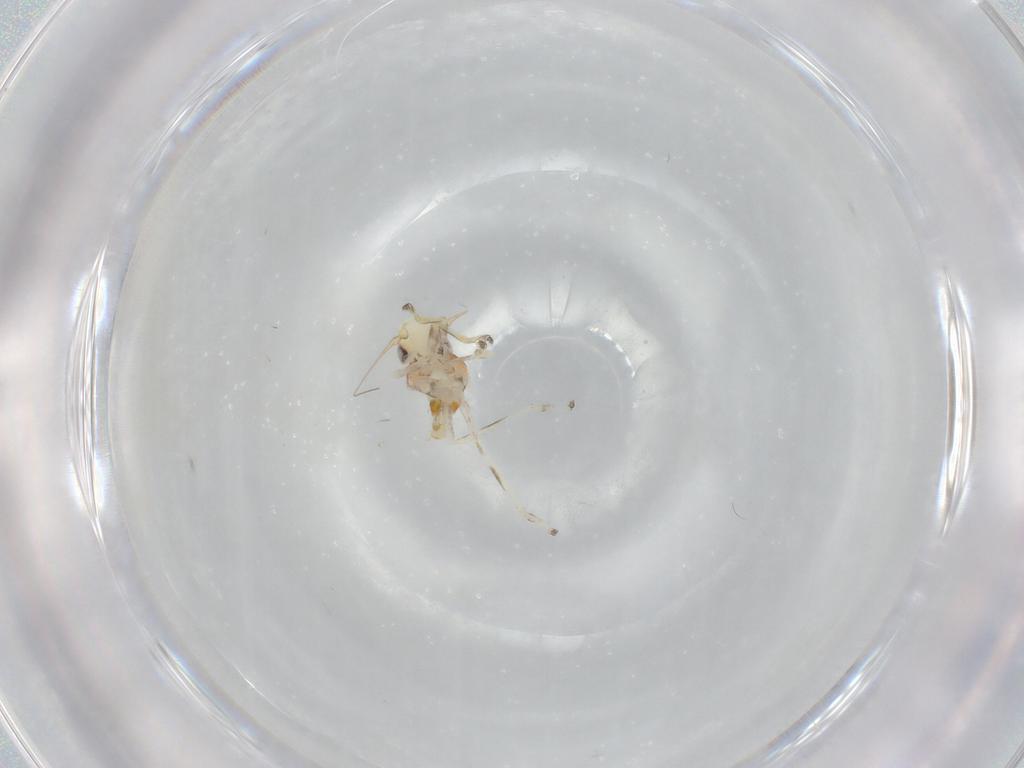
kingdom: Animalia
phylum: Arthropoda
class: Insecta
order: Hemiptera
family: Cicadellidae
